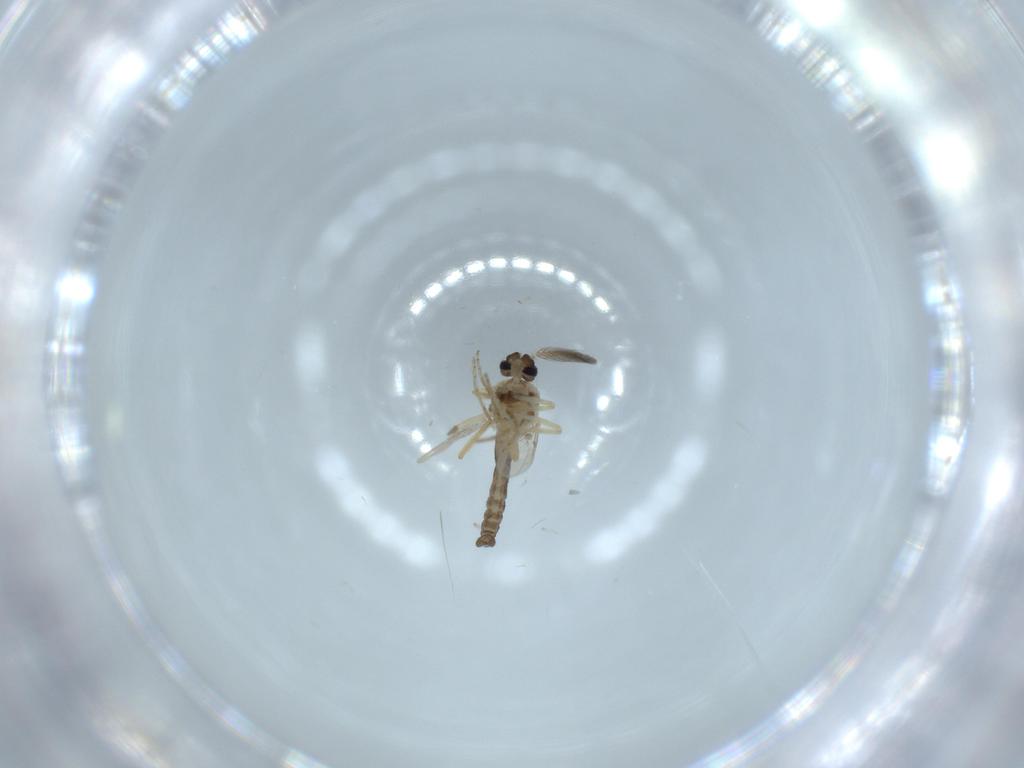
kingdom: Animalia
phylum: Arthropoda
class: Insecta
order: Diptera
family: Ceratopogonidae
